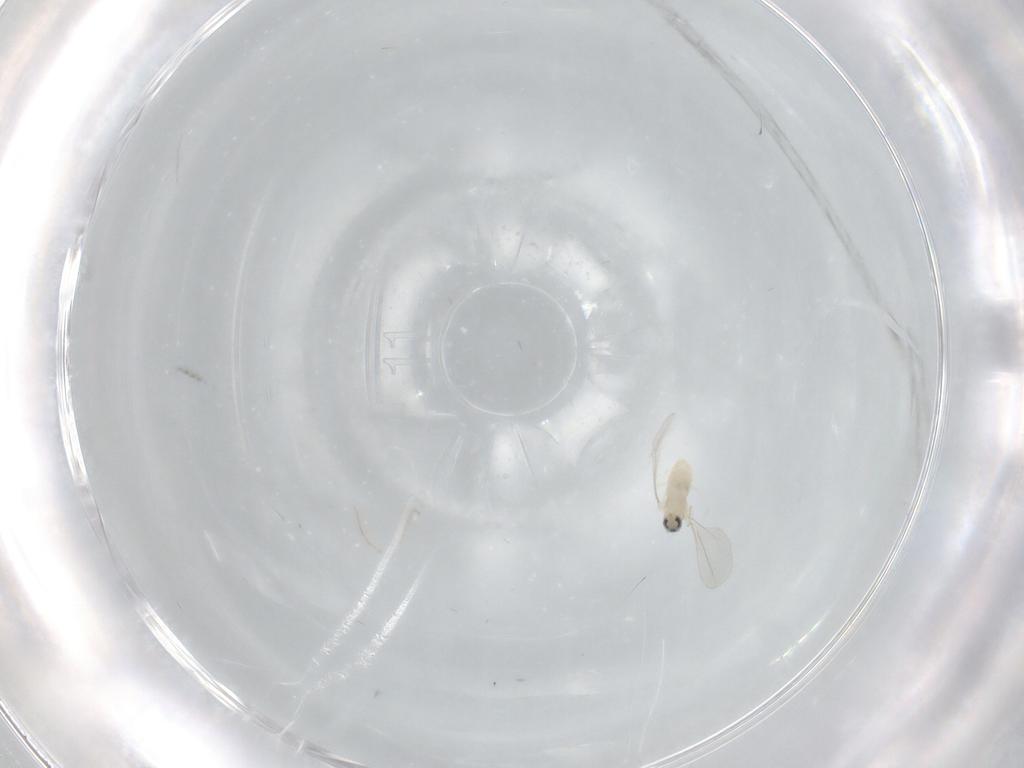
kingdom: Animalia
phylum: Arthropoda
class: Insecta
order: Diptera
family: Cecidomyiidae
